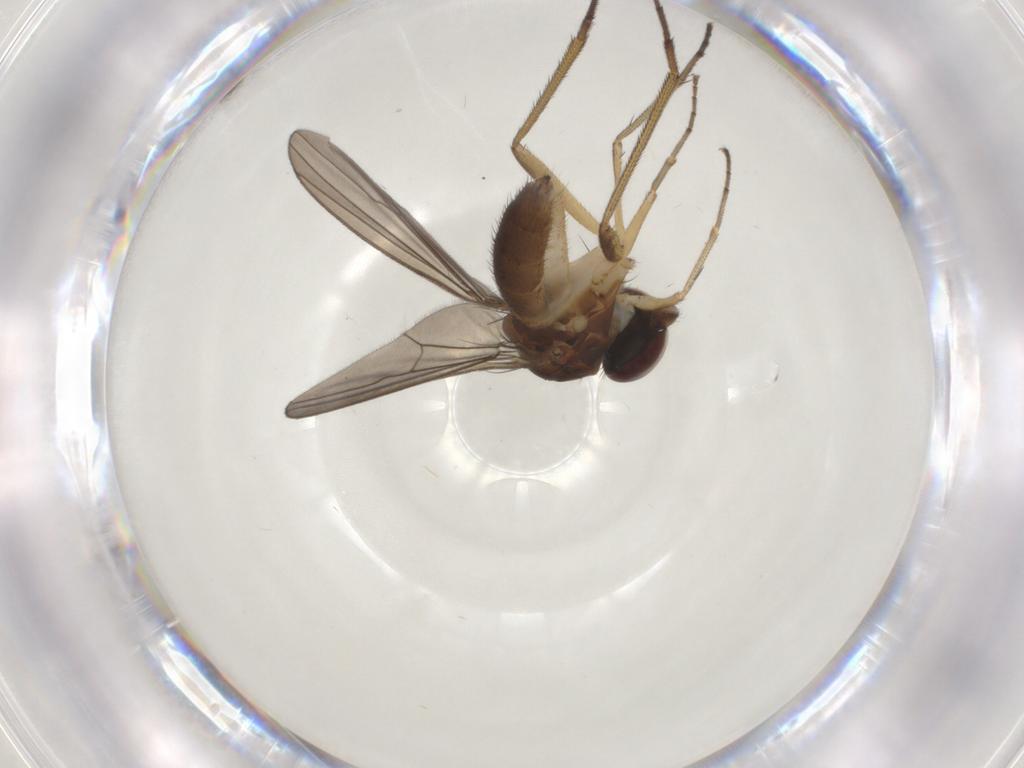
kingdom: Animalia
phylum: Arthropoda
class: Insecta
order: Diptera
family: Dolichopodidae
